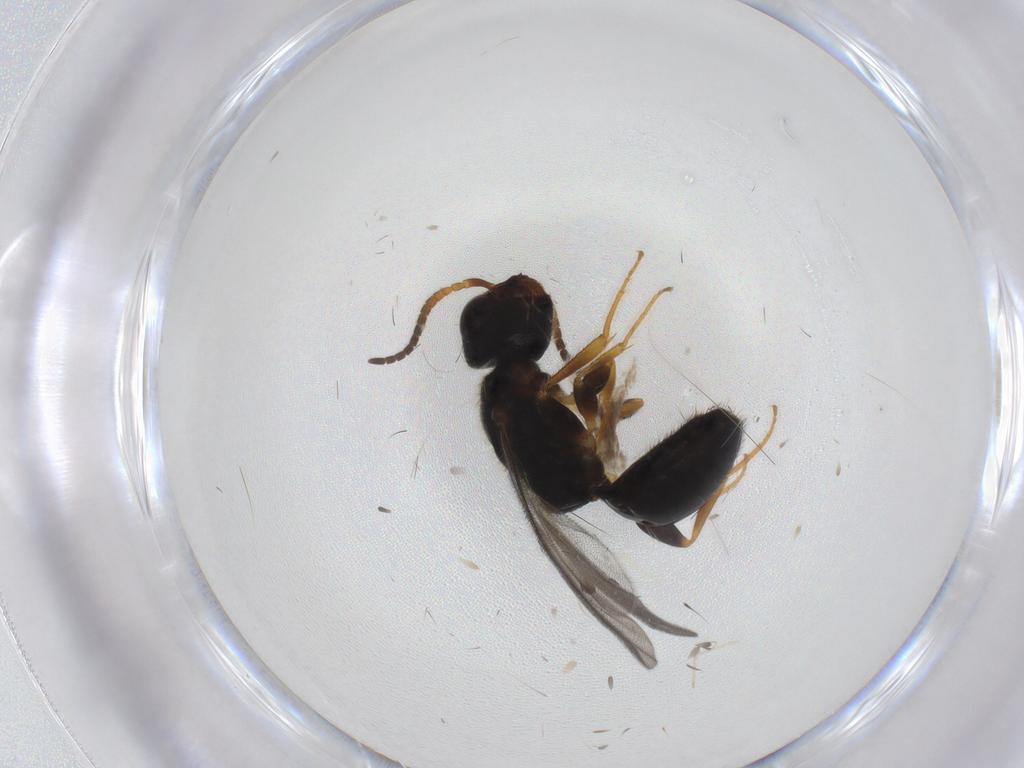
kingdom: Animalia
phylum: Arthropoda
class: Insecta
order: Hymenoptera
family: Bethylidae
